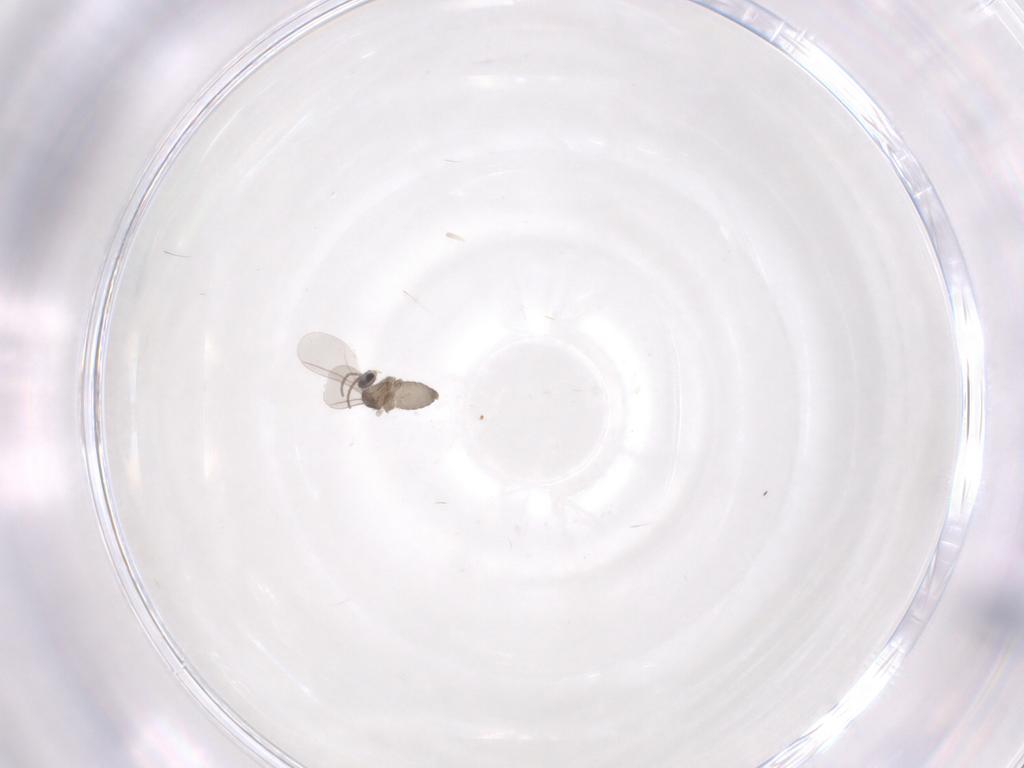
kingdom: Animalia
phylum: Arthropoda
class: Insecta
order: Diptera
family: Cecidomyiidae
